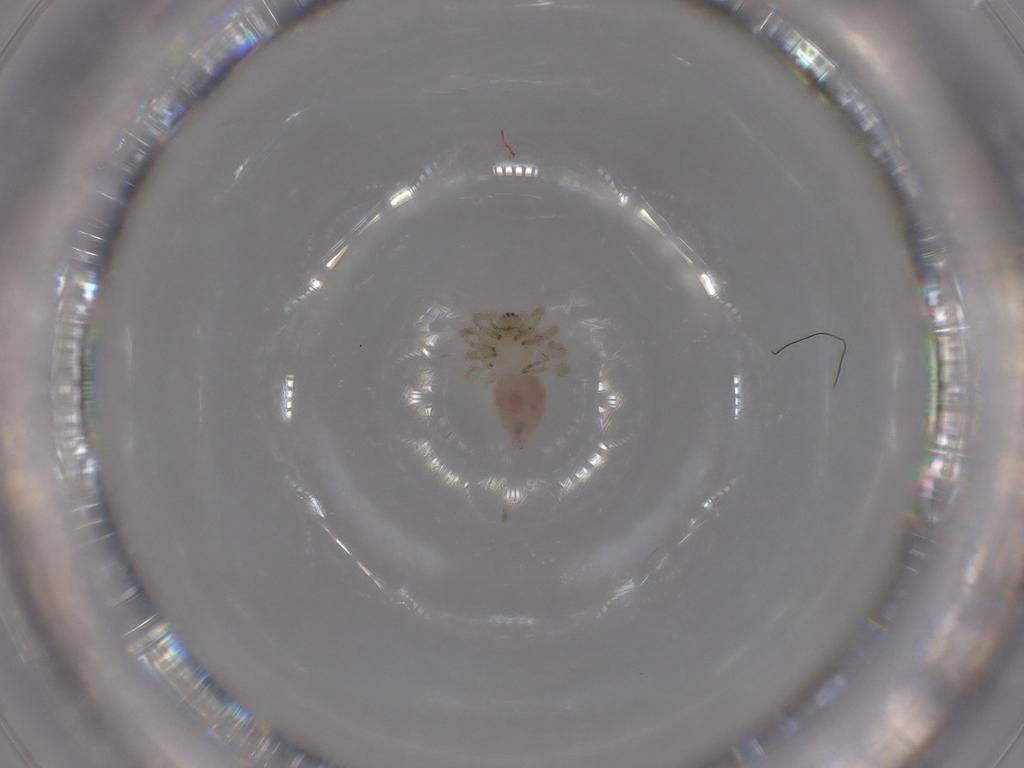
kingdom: Animalia
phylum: Arthropoda
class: Arachnida
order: Araneae
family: Dictynidae
